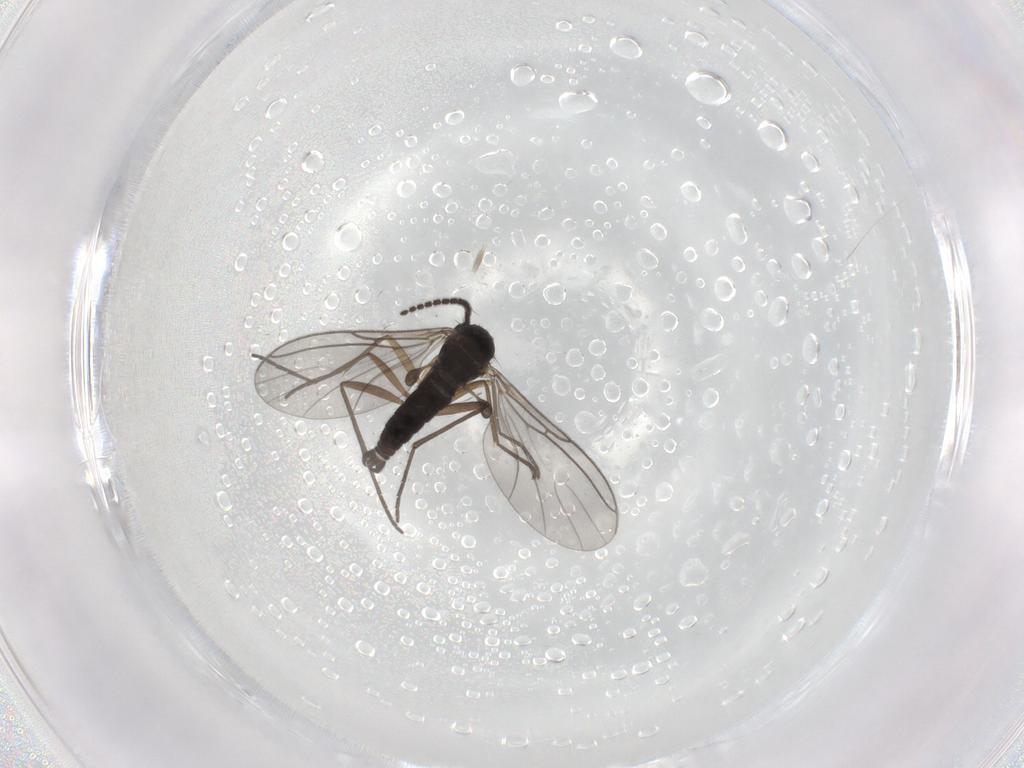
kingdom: Animalia
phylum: Arthropoda
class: Insecta
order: Diptera
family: Sciaridae
